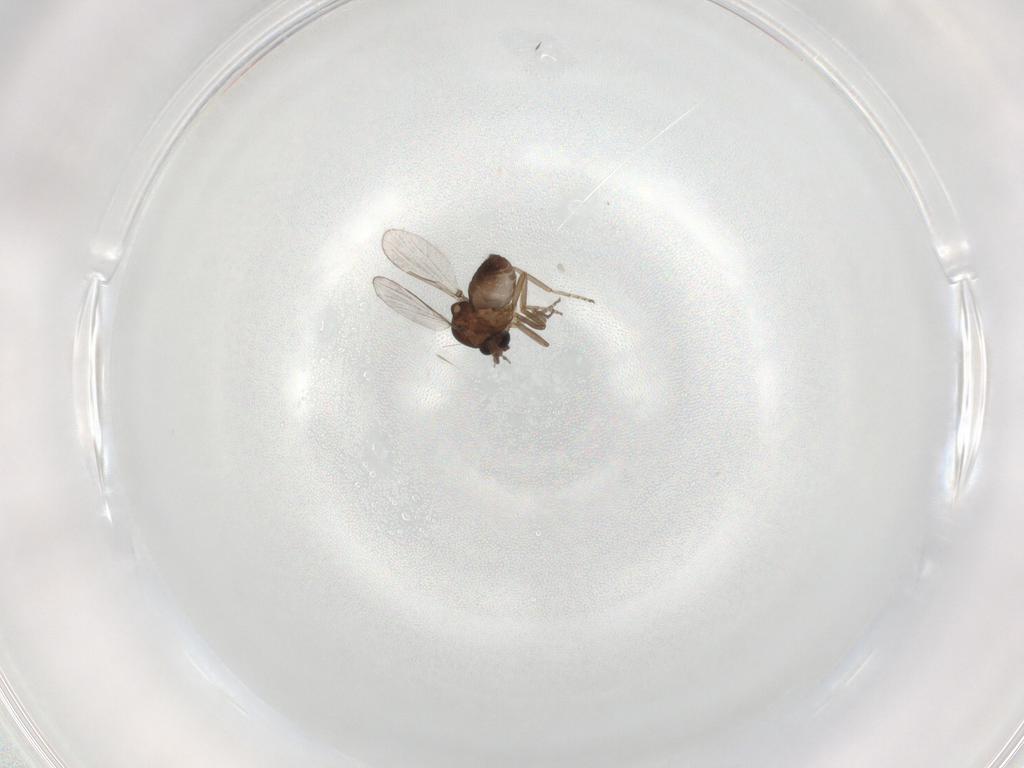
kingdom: Animalia
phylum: Arthropoda
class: Insecta
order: Diptera
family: Ceratopogonidae
